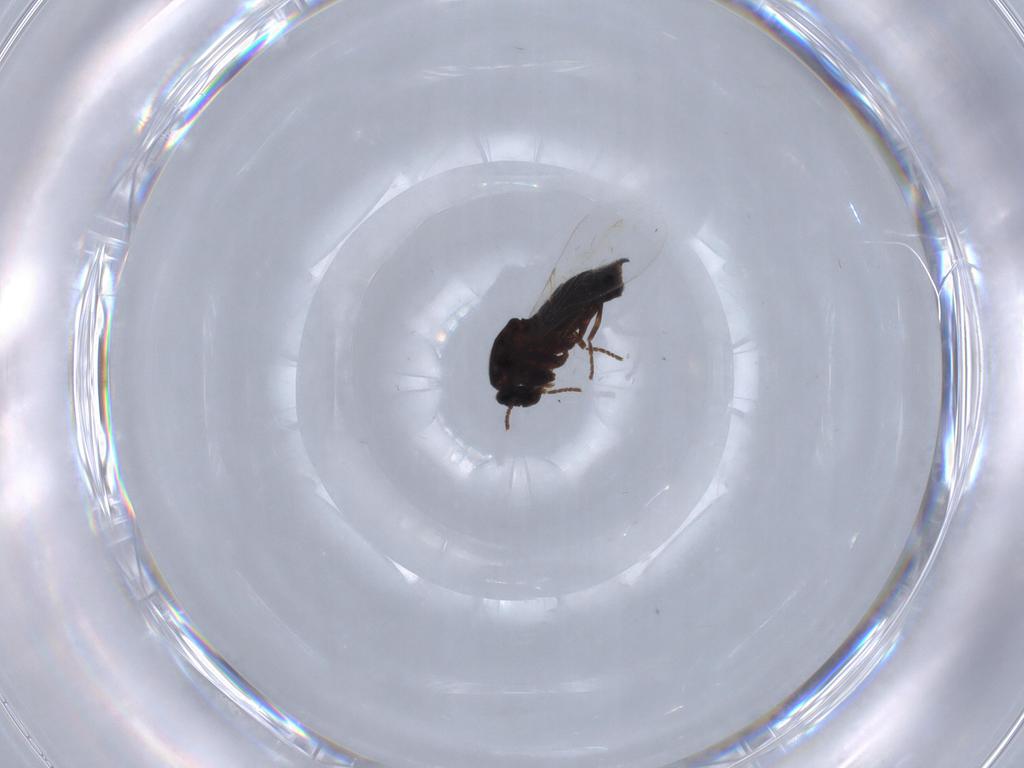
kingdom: Animalia
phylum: Arthropoda
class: Insecta
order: Diptera
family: Scatopsidae
